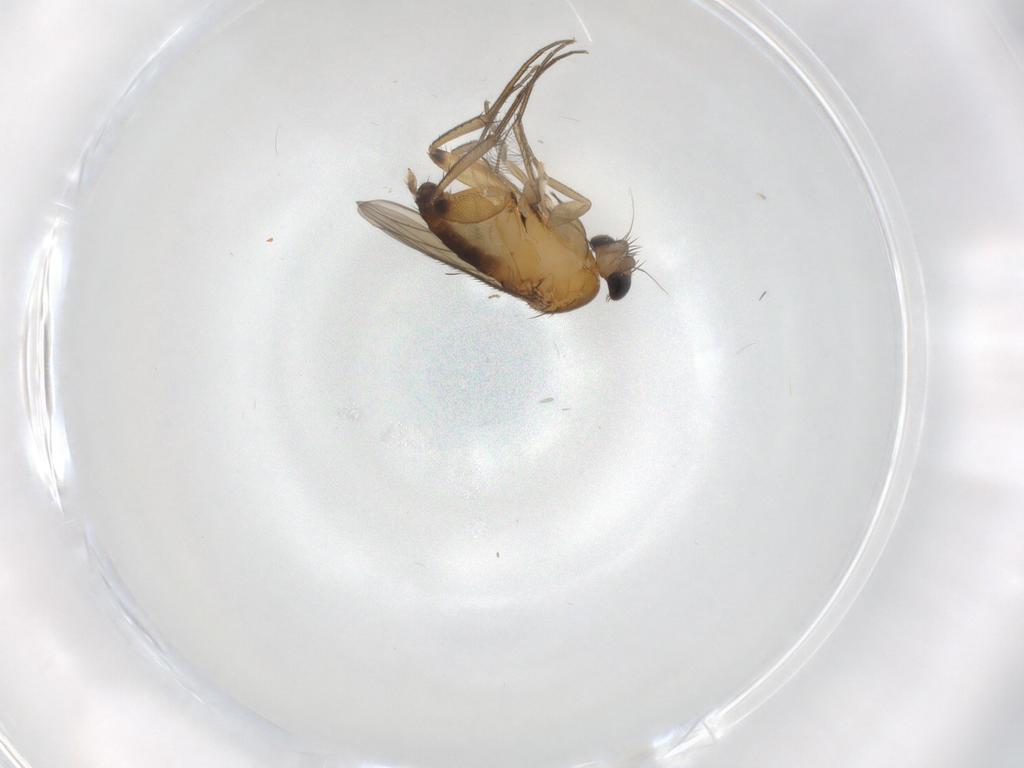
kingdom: Animalia
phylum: Arthropoda
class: Insecta
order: Diptera
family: Phoridae
